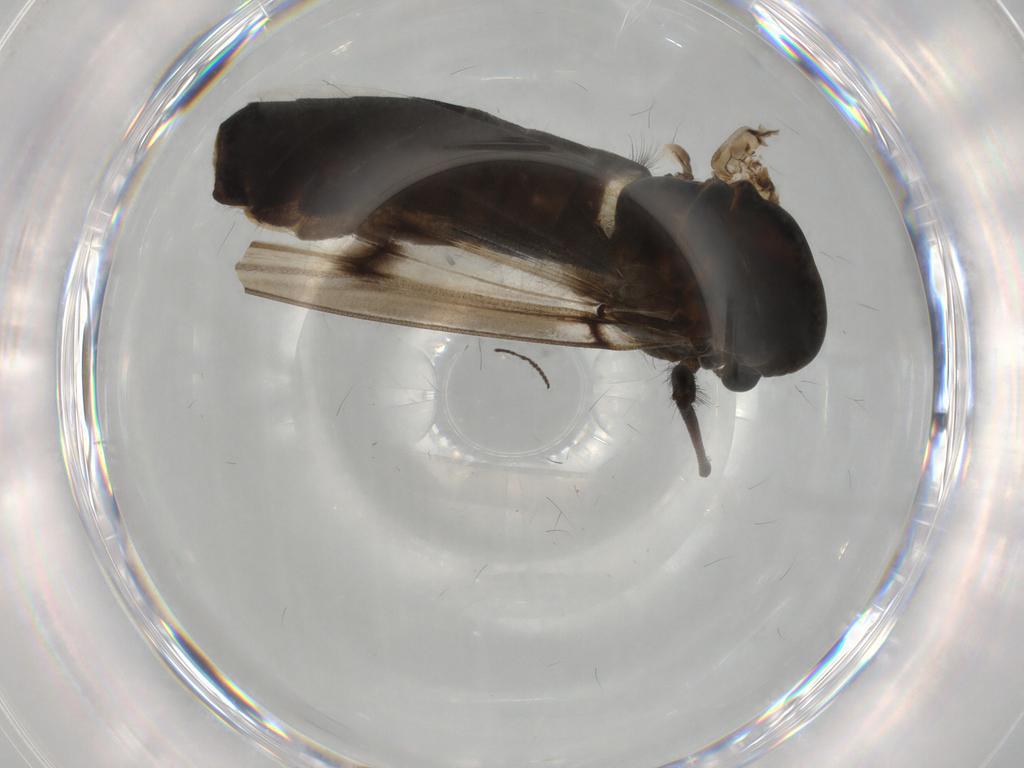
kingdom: Animalia
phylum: Arthropoda
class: Insecta
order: Diptera
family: Chironomidae
